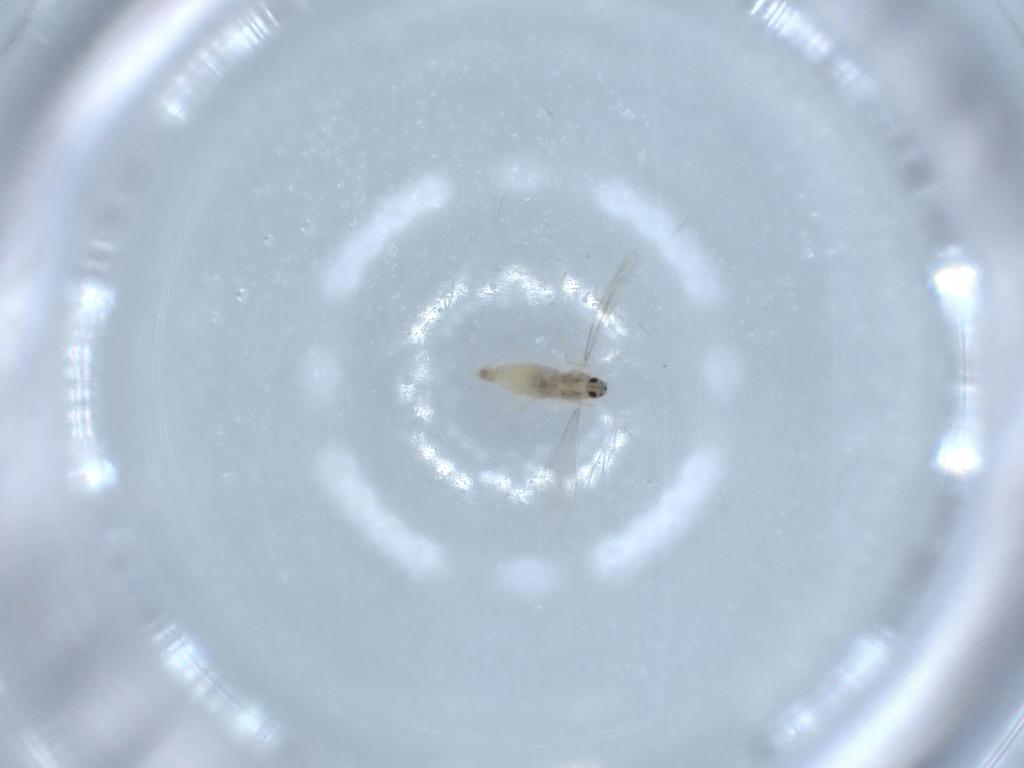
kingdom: Animalia
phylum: Arthropoda
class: Insecta
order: Diptera
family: Cecidomyiidae
